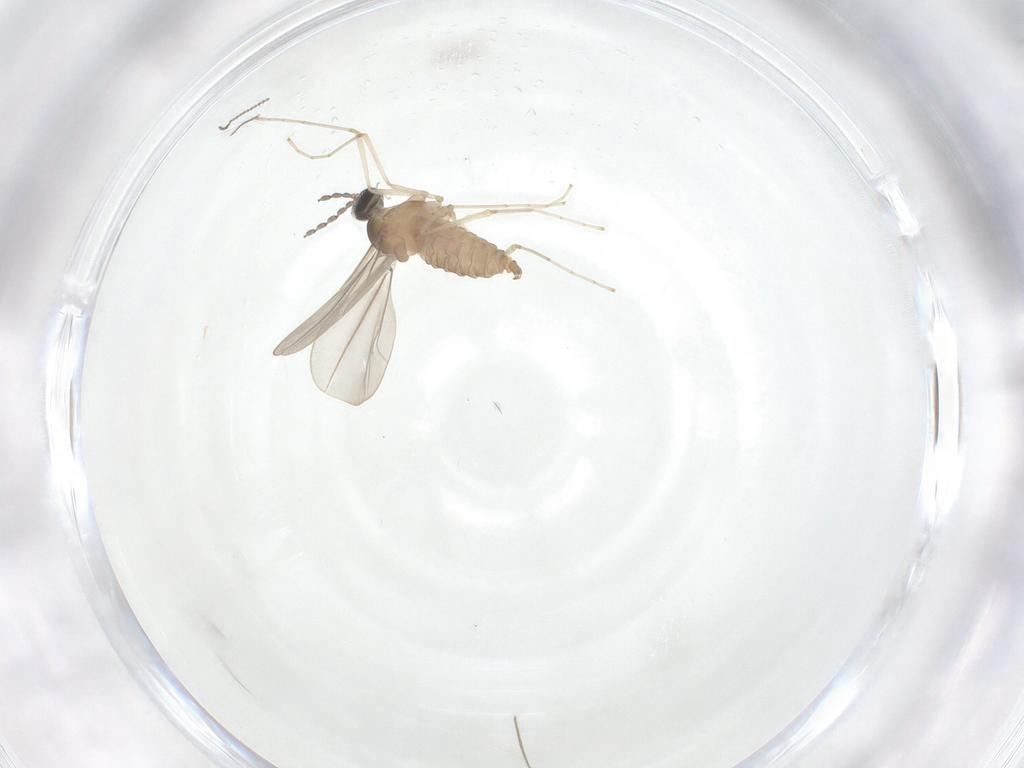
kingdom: Animalia
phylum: Arthropoda
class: Insecta
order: Diptera
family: Cecidomyiidae
